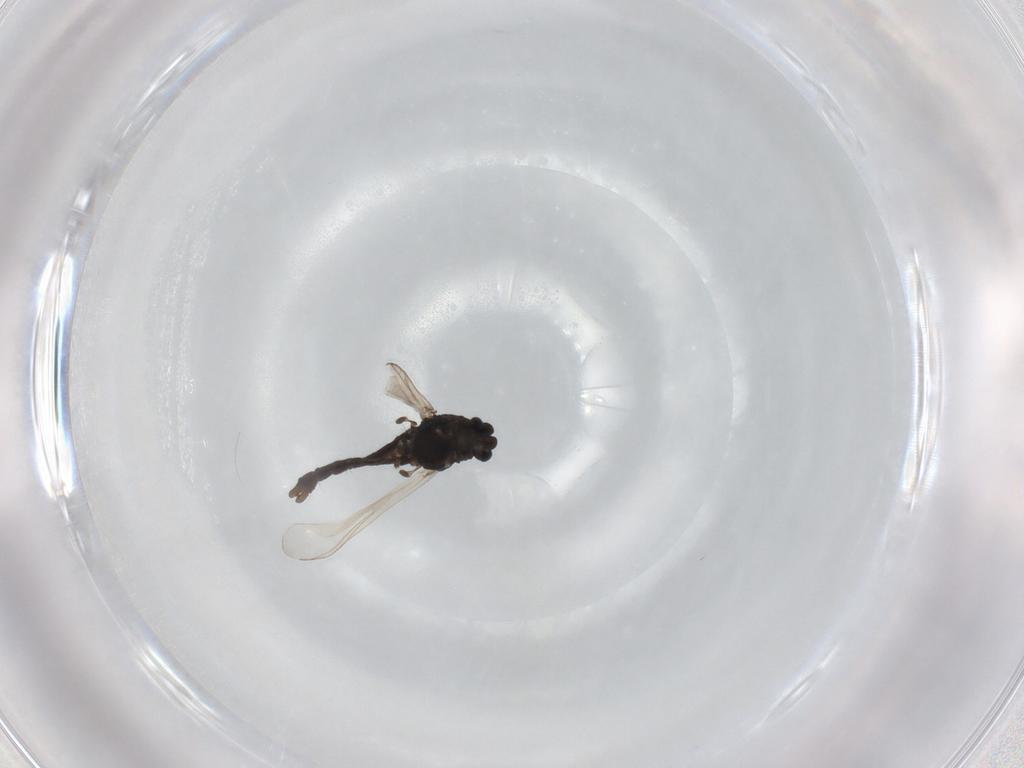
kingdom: Animalia
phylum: Arthropoda
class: Insecta
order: Diptera
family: Chironomidae
